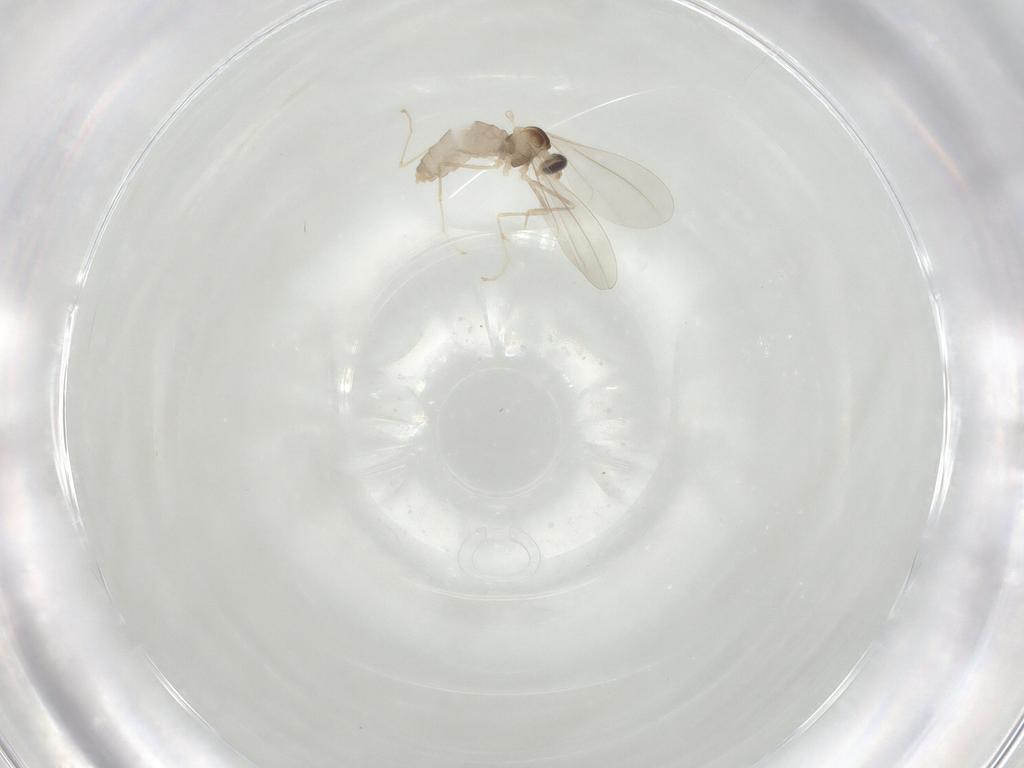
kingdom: Animalia
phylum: Arthropoda
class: Insecta
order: Diptera
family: Cecidomyiidae
